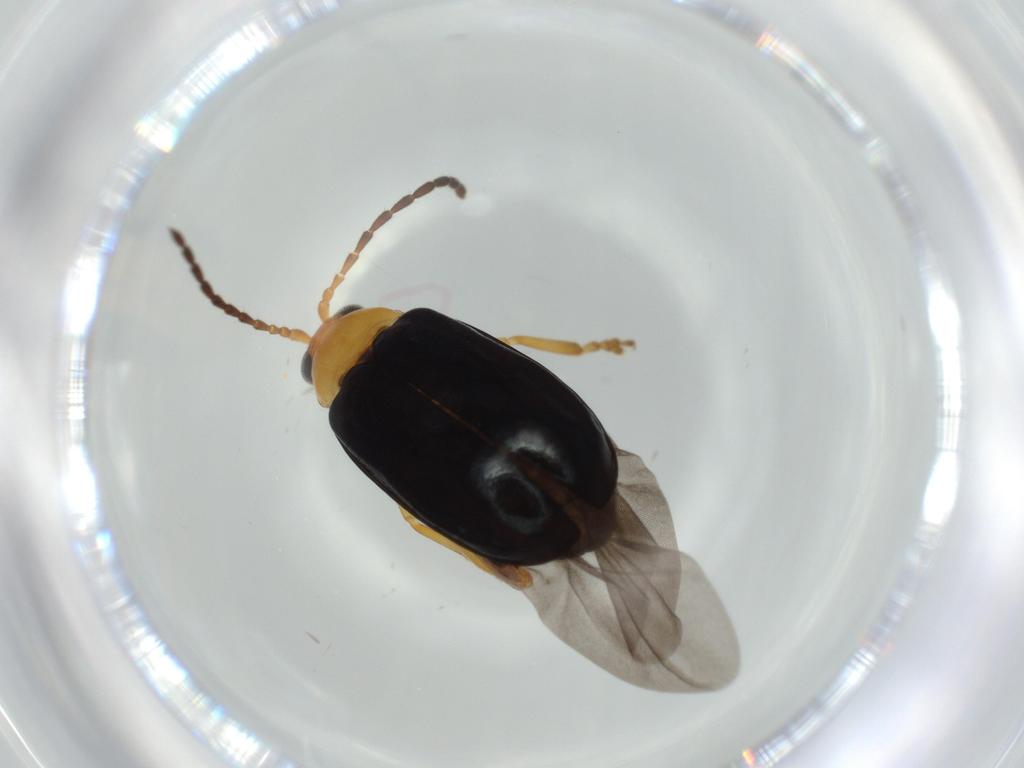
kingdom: Animalia
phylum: Arthropoda
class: Insecta
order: Coleoptera
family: Chrysomelidae
